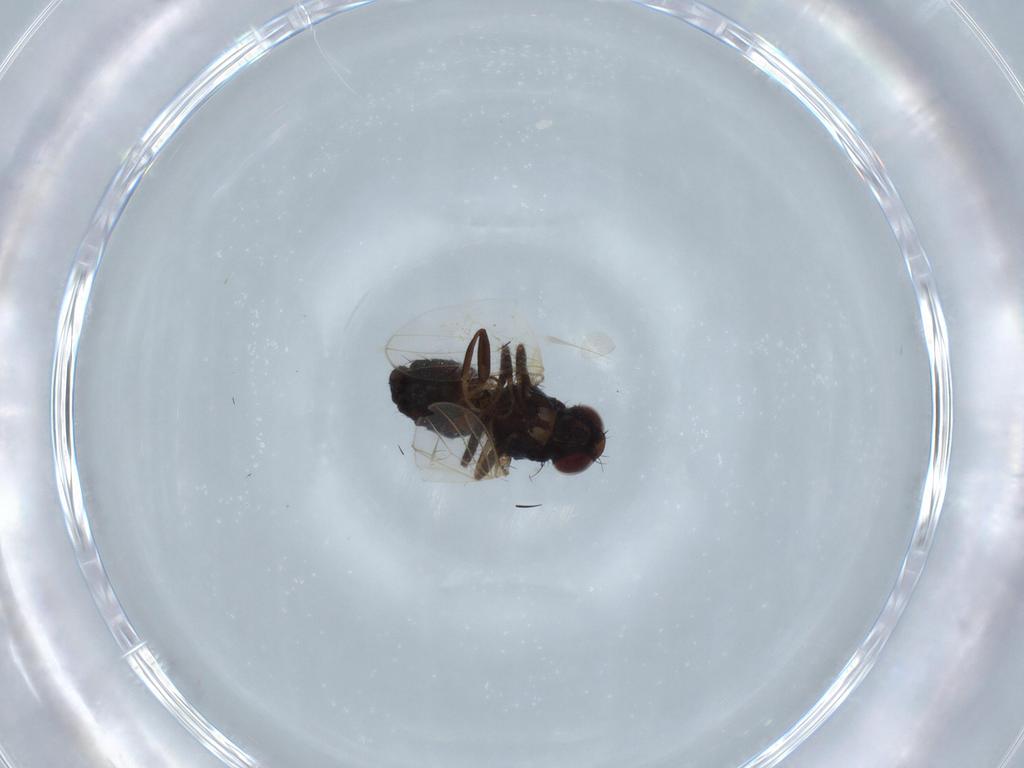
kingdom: Animalia
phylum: Arthropoda
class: Insecta
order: Diptera
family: Carnidae
